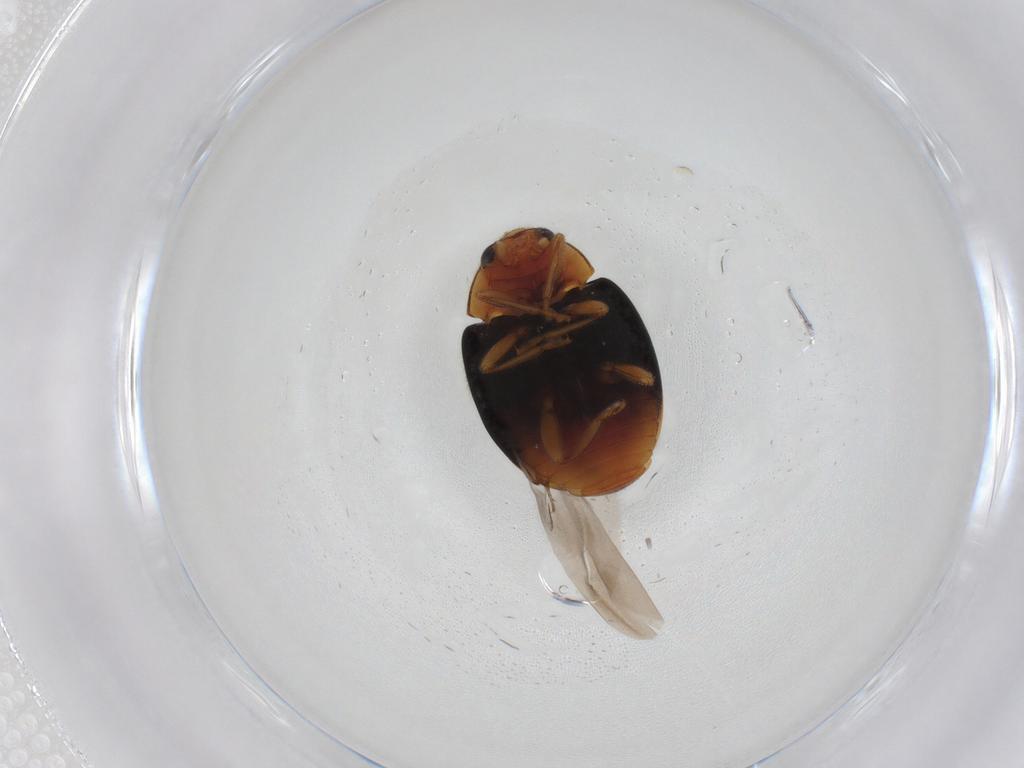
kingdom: Animalia
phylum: Arthropoda
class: Insecta
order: Coleoptera
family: Coccinellidae
